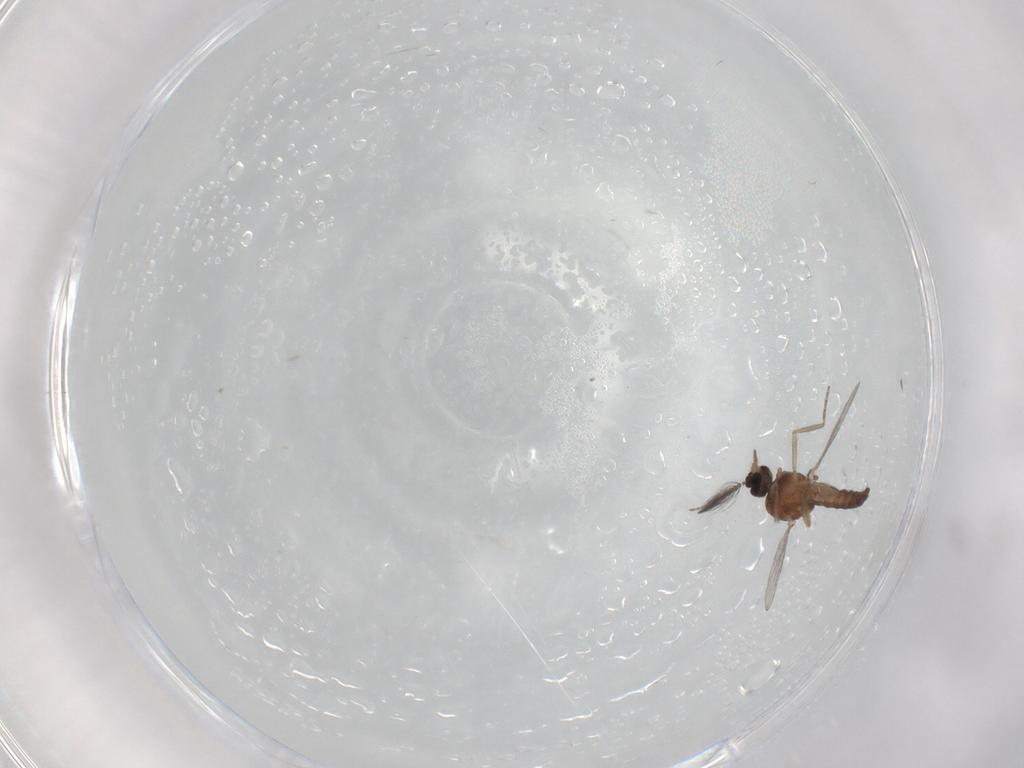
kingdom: Animalia
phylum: Arthropoda
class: Insecta
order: Diptera
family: Ceratopogonidae
